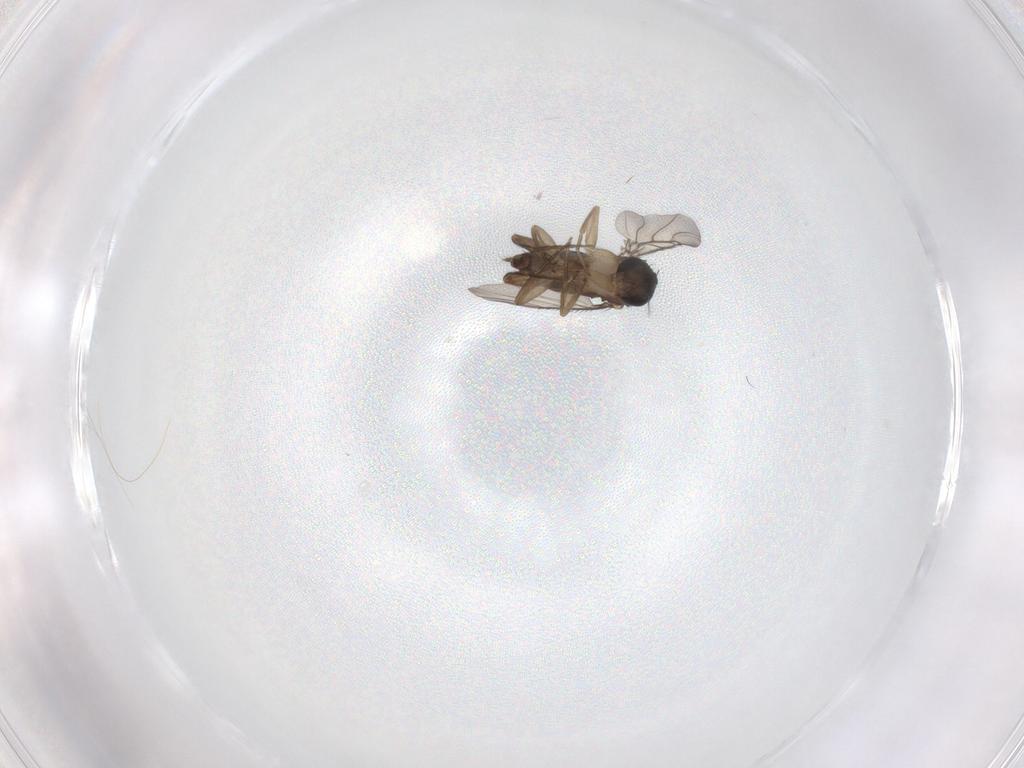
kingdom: Animalia
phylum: Arthropoda
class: Insecta
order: Diptera
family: Phoridae
